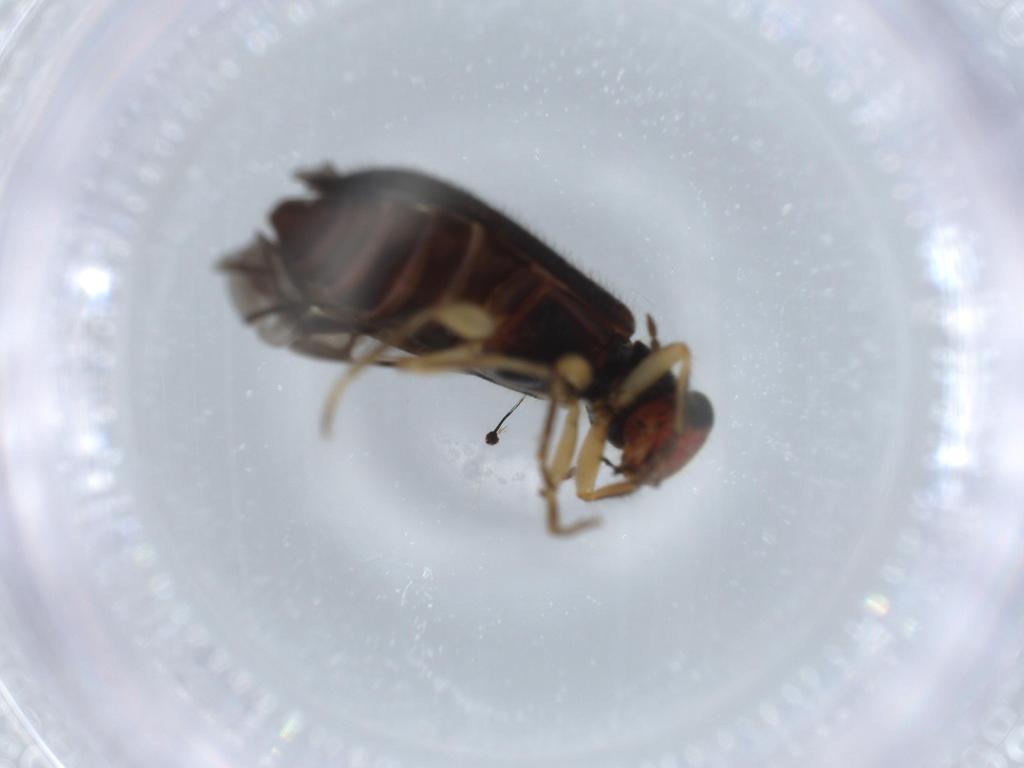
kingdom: Animalia
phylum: Arthropoda
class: Insecta
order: Coleoptera
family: Cleridae
